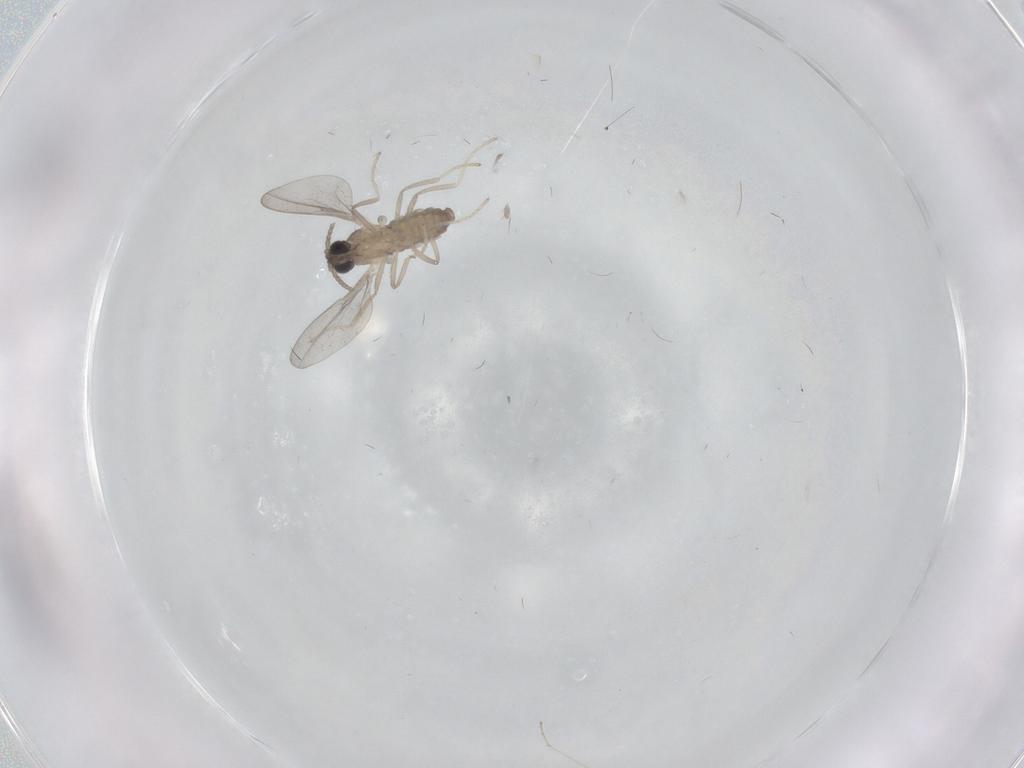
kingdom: Animalia
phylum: Arthropoda
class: Insecta
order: Diptera
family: Cecidomyiidae
